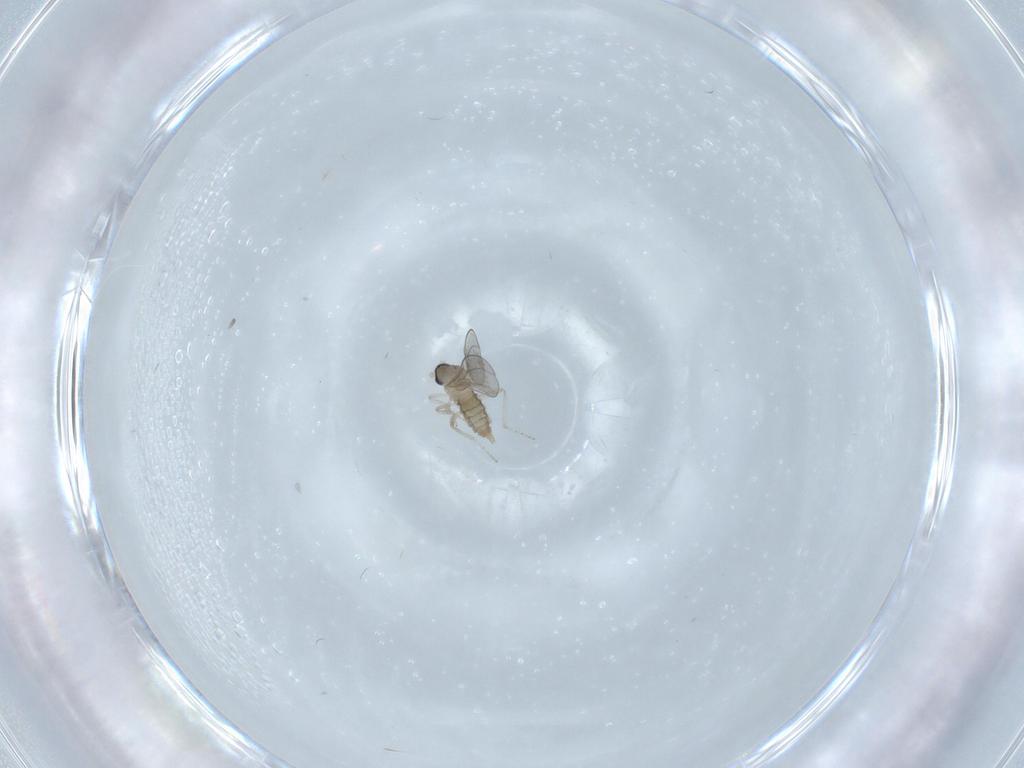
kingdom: Animalia
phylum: Arthropoda
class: Insecta
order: Diptera
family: Cecidomyiidae
